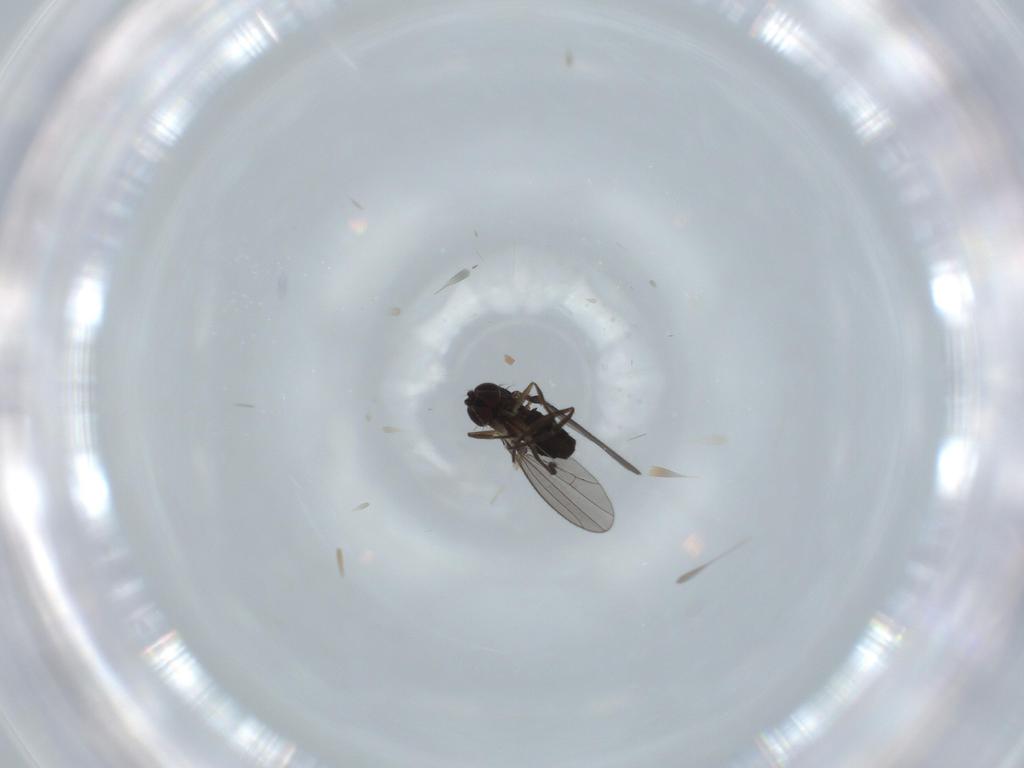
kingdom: Animalia
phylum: Arthropoda
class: Insecta
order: Diptera
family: Dolichopodidae
